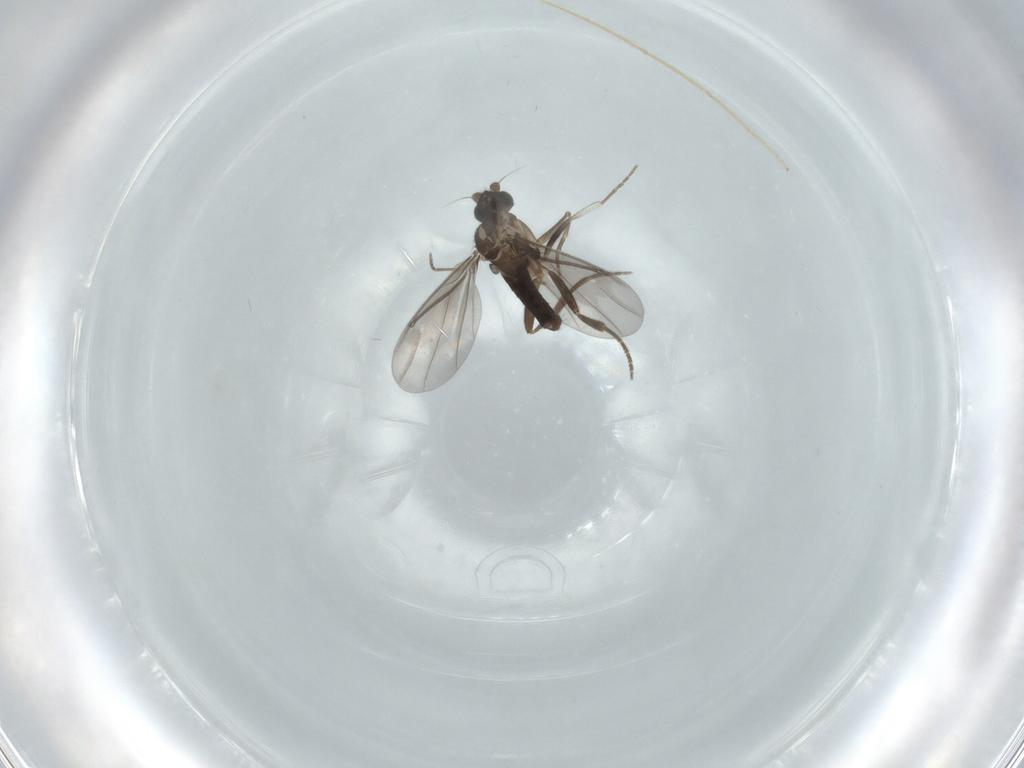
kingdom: Animalia
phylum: Arthropoda
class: Insecta
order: Diptera
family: Chironomidae
